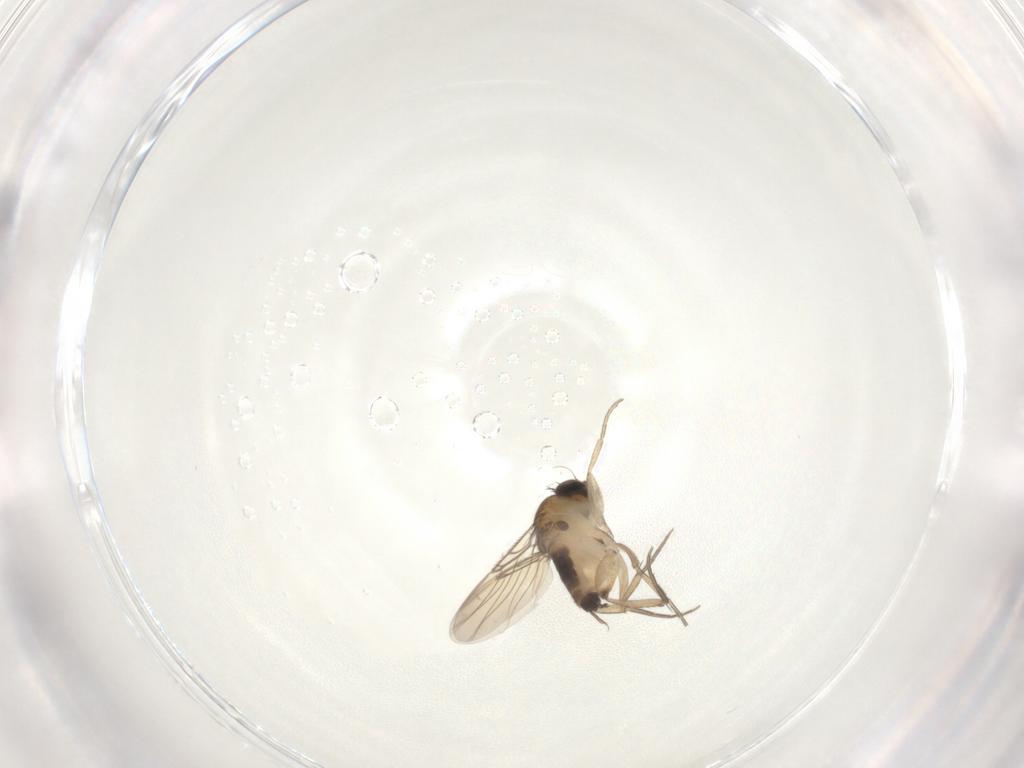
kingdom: Animalia
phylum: Arthropoda
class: Insecta
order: Diptera
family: Phoridae
